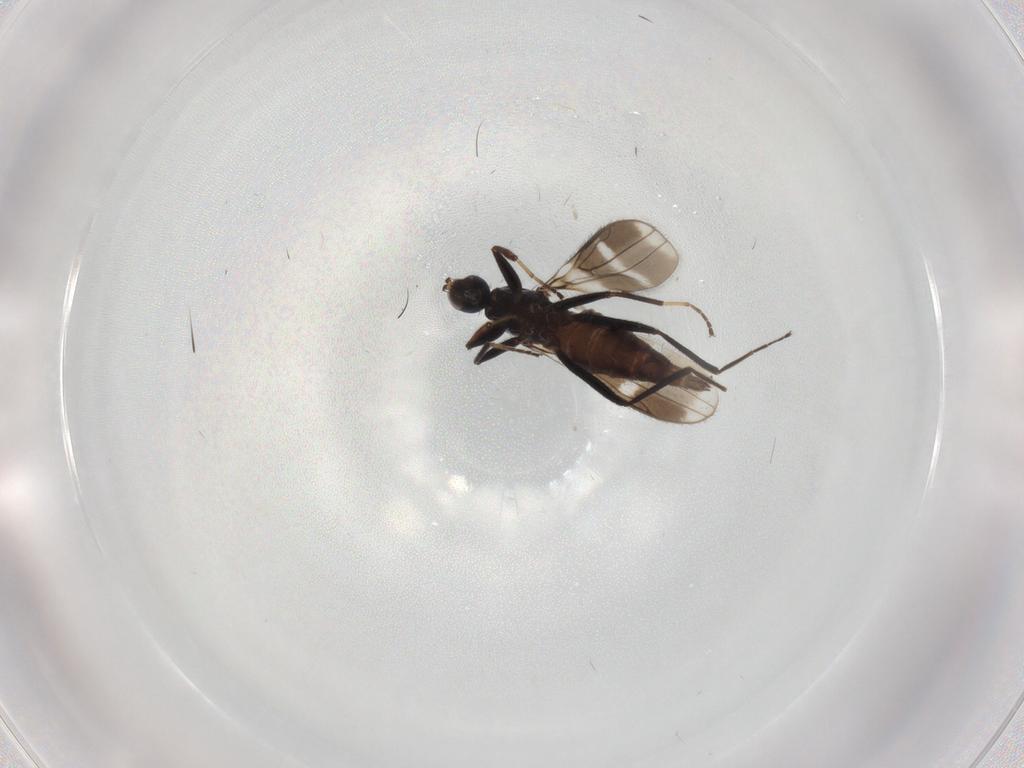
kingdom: Animalia
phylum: Arthropoda
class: Insecta
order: Diptera
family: Hybotidae
